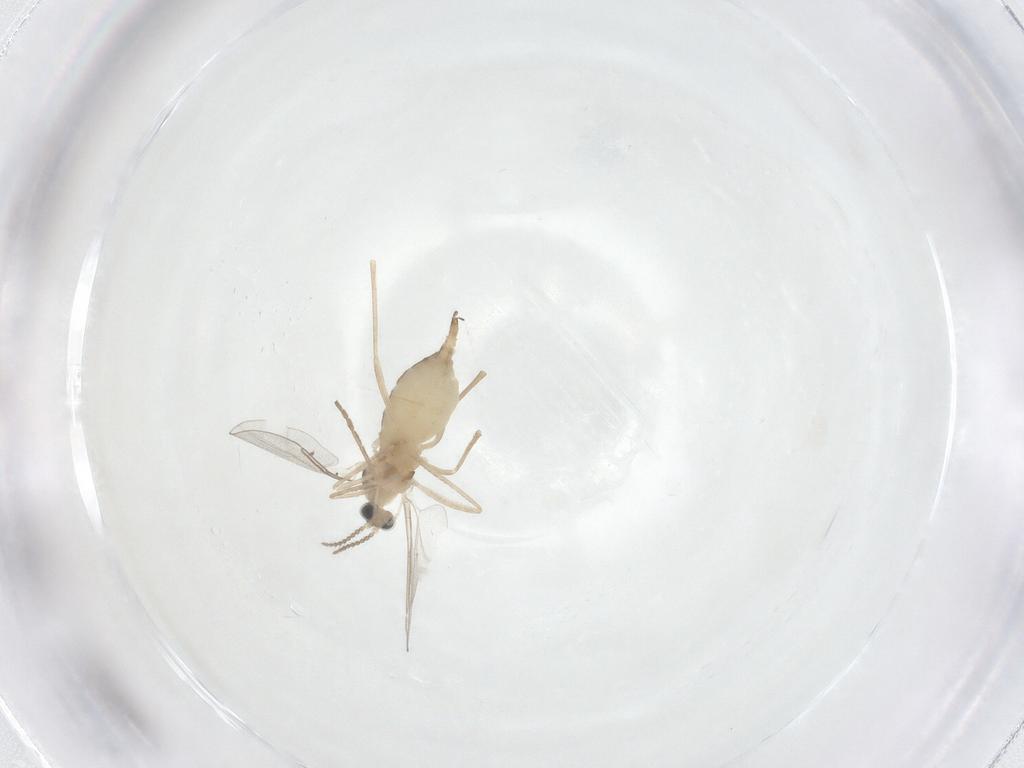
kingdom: Animalia
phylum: Arthropoda
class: Insecta
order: Diptera
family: Cecidomyiidae
